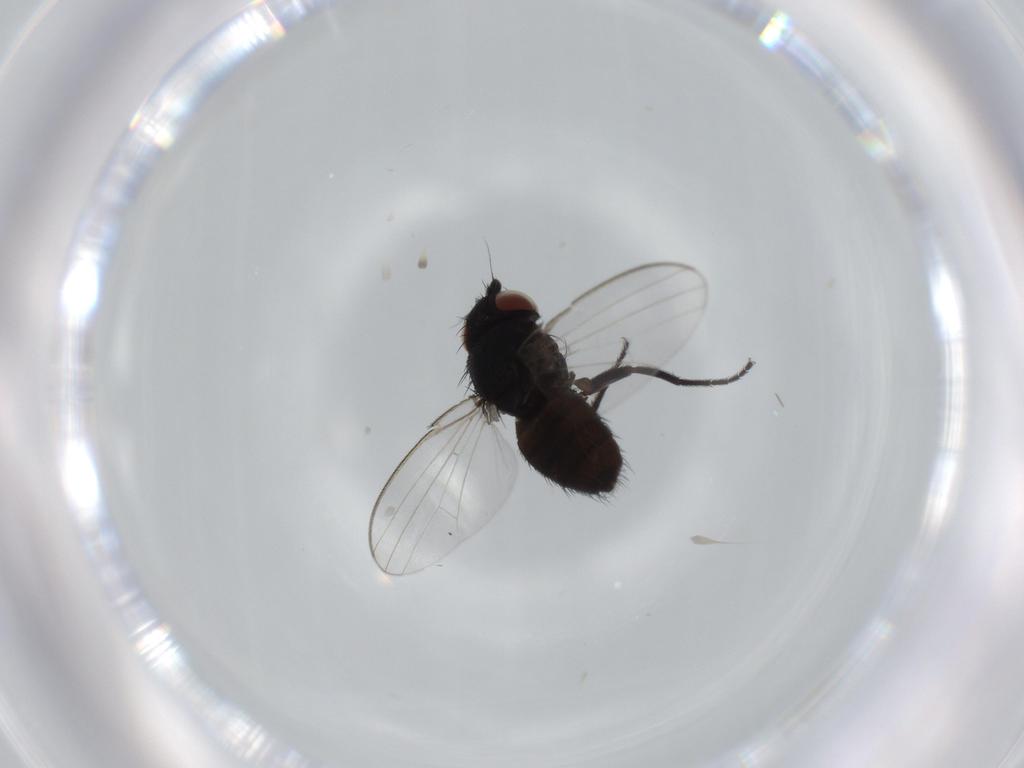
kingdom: Animalia
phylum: Arthropoda
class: Insecta
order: Diptera
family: Milichiidae
